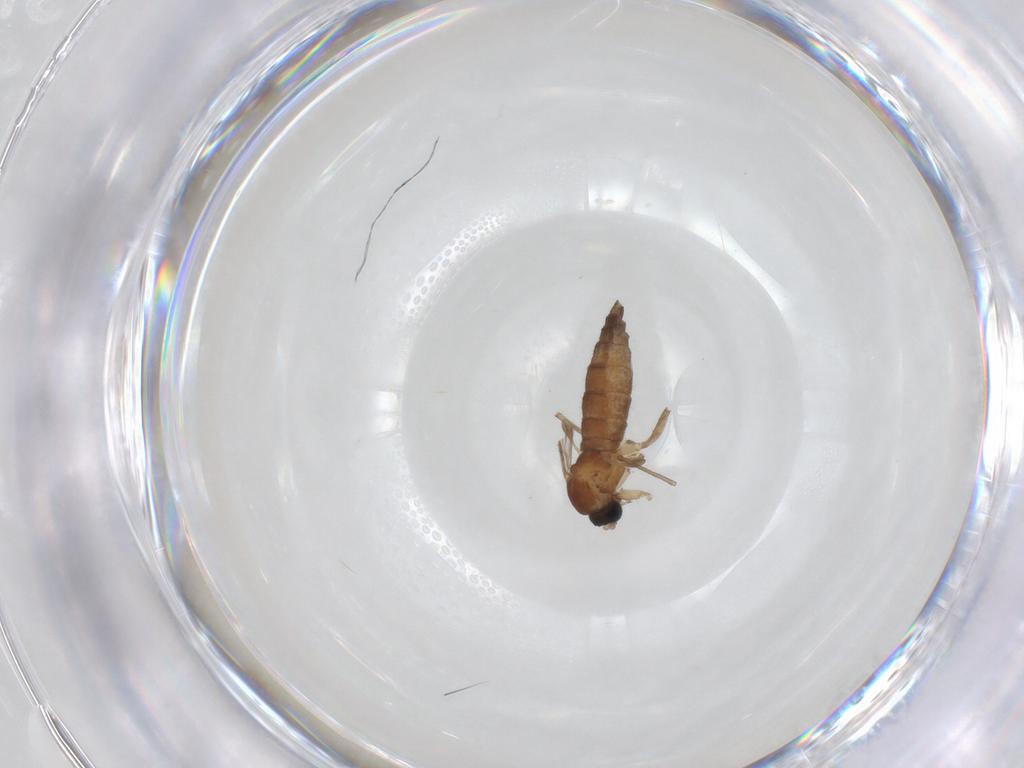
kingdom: Animalia
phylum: Arthropoda
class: Insecta
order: Diptera
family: Sciaridae
